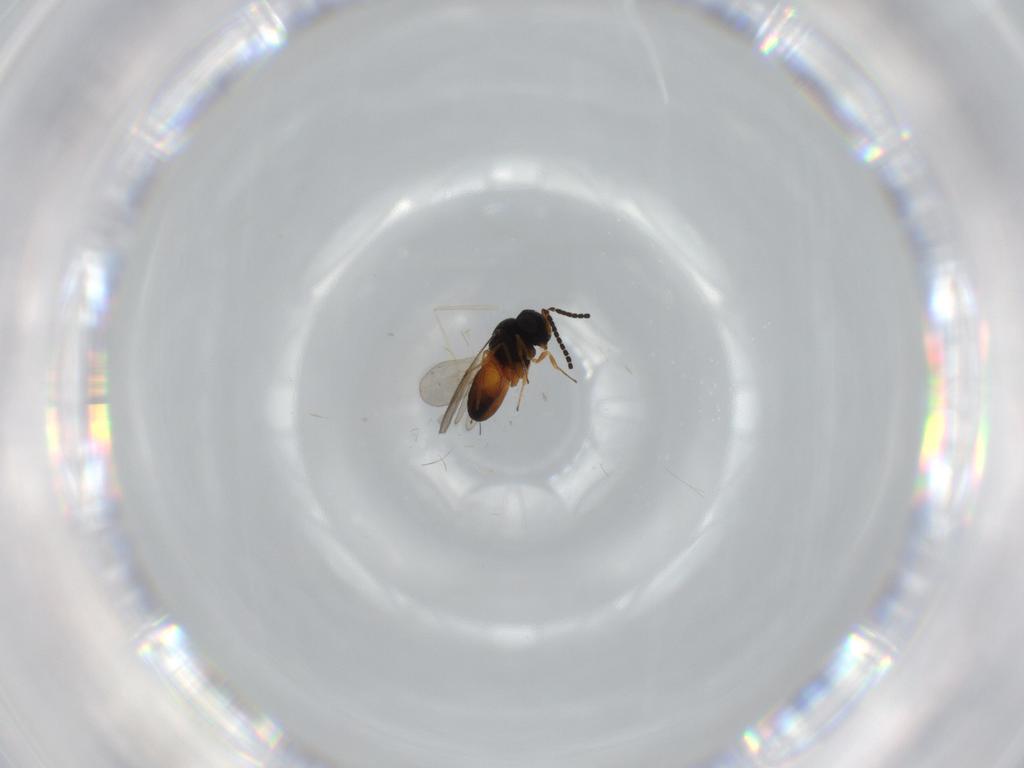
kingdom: Animalia
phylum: Arthropoda
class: Insecta
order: Hymenoptera
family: Scelionidae
